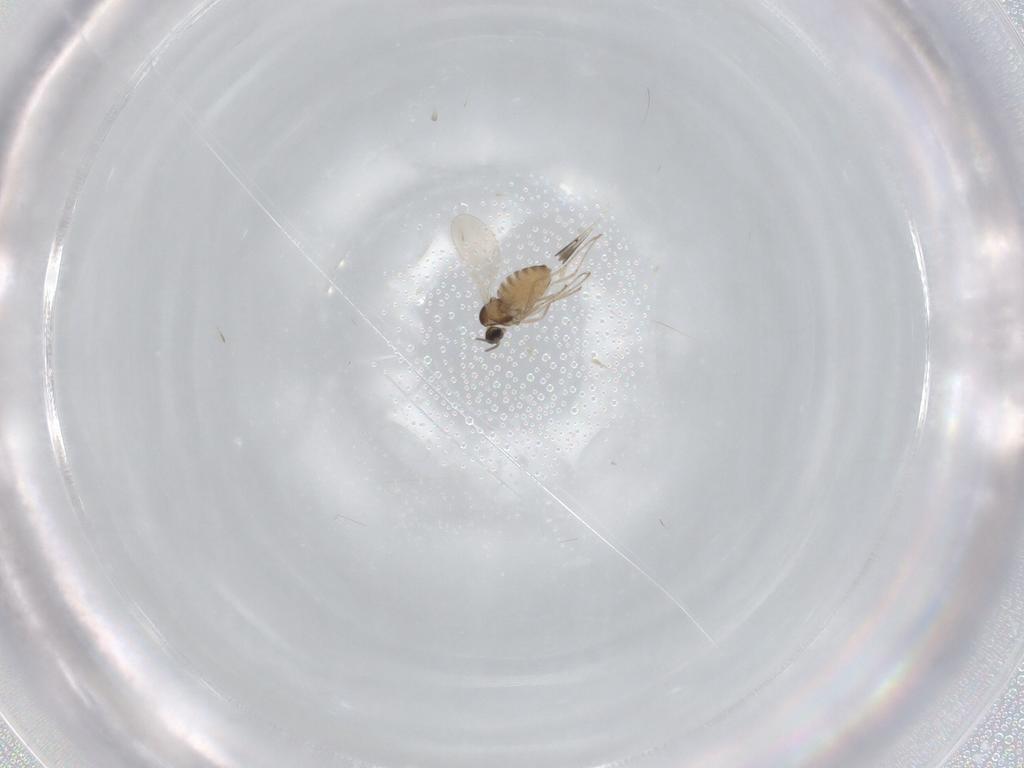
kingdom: Animalia
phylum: Arthropoda
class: Insecta
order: Diptera
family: Cecidomyiidae
